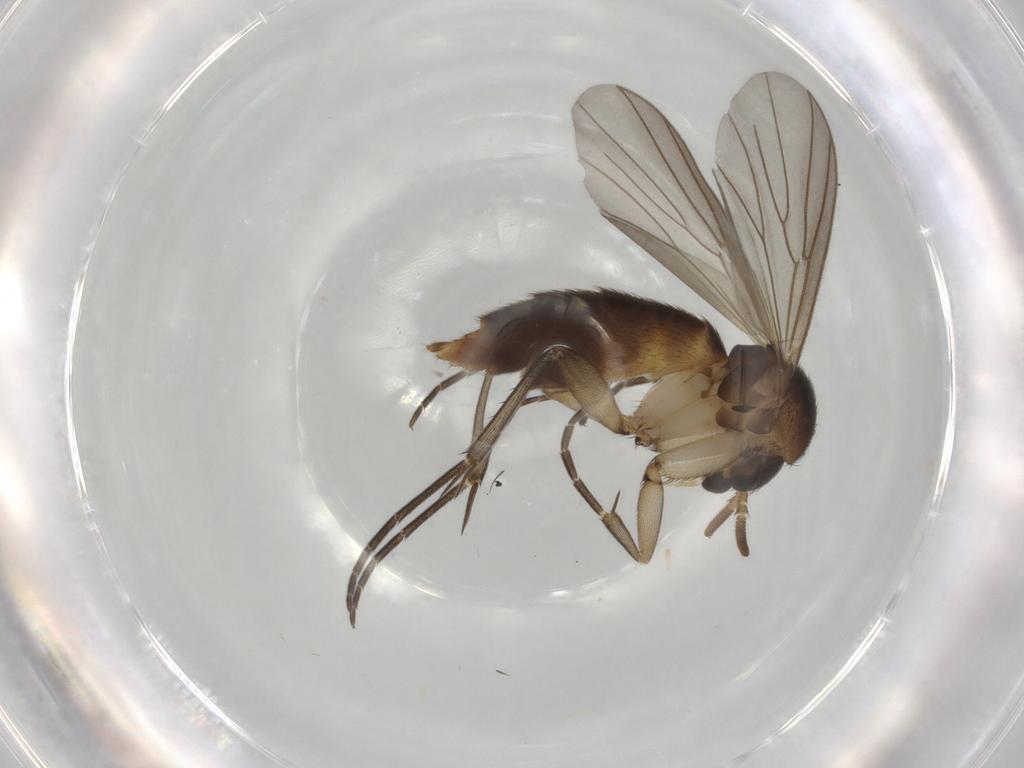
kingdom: Animalia
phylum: Arthropoda
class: Insecta
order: Diptera
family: Mycetophilidae
